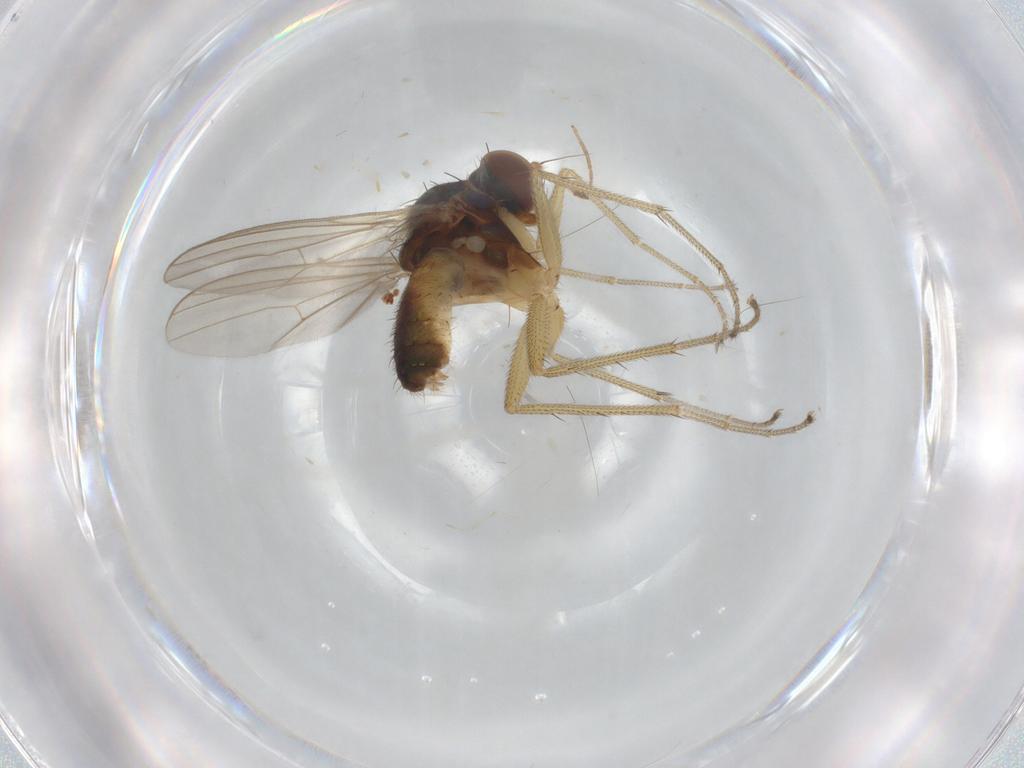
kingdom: Animalia
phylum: Arthropoda
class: Insecta
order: Diptera
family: Dolichopodidae
